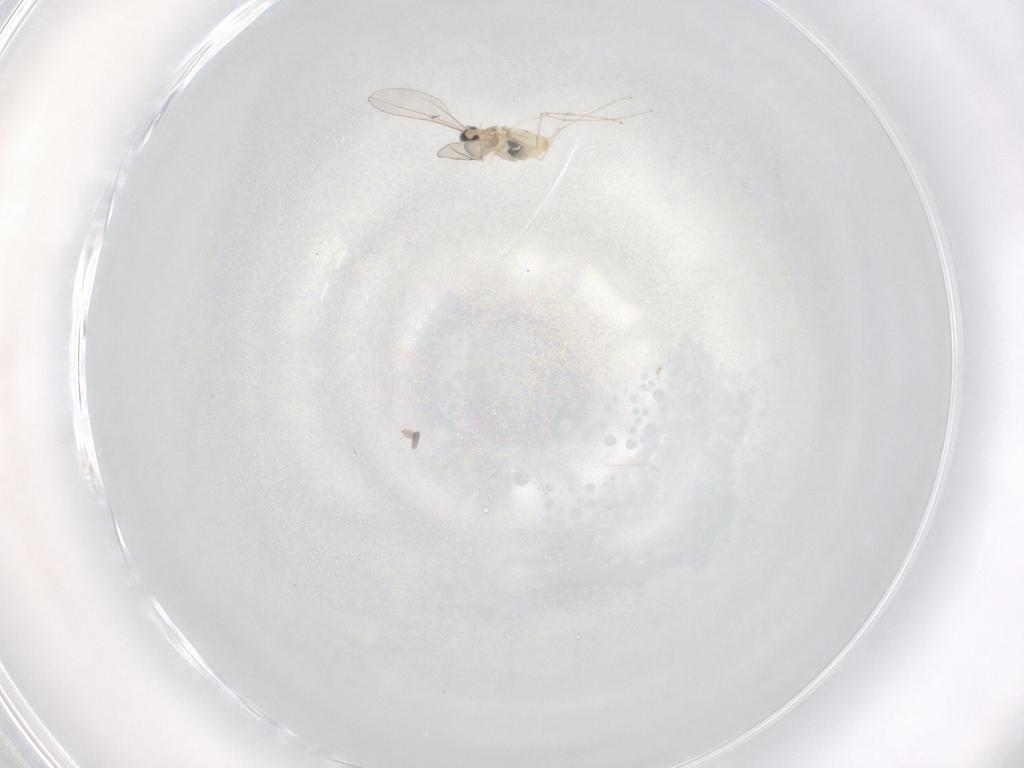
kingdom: Animalia
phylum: Arthropoda
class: Insecta
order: Diptera
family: Cecidomyiidae
